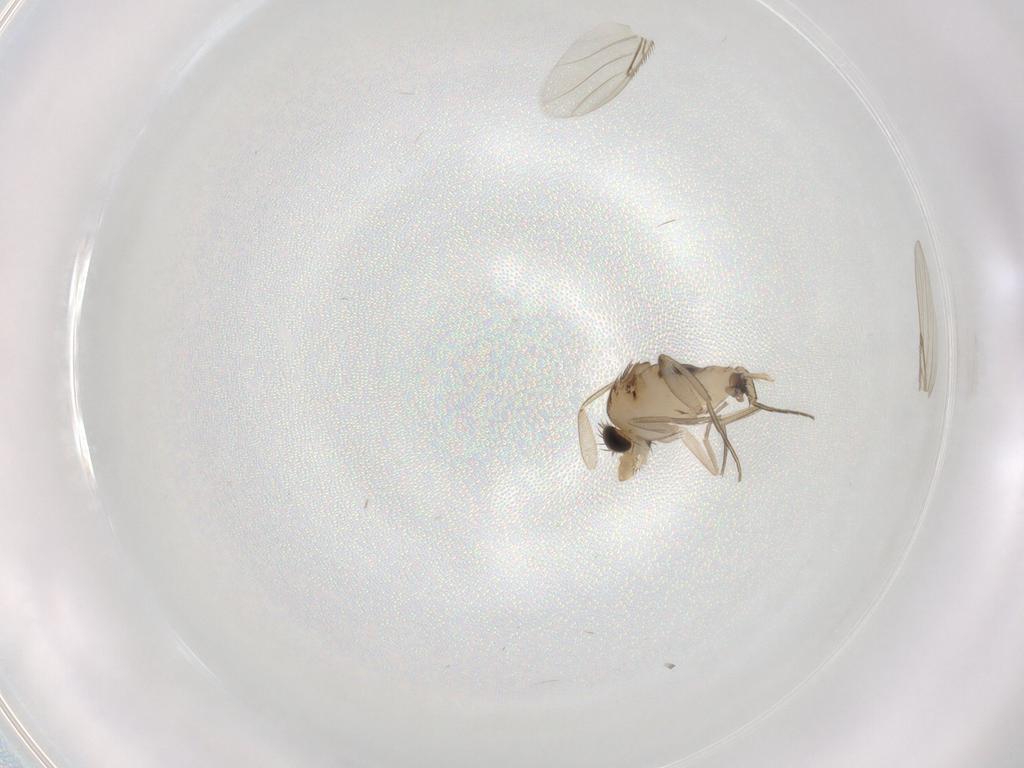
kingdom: Animalia
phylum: Arthropoda
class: Insecta
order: Diptera
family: Phoridae
